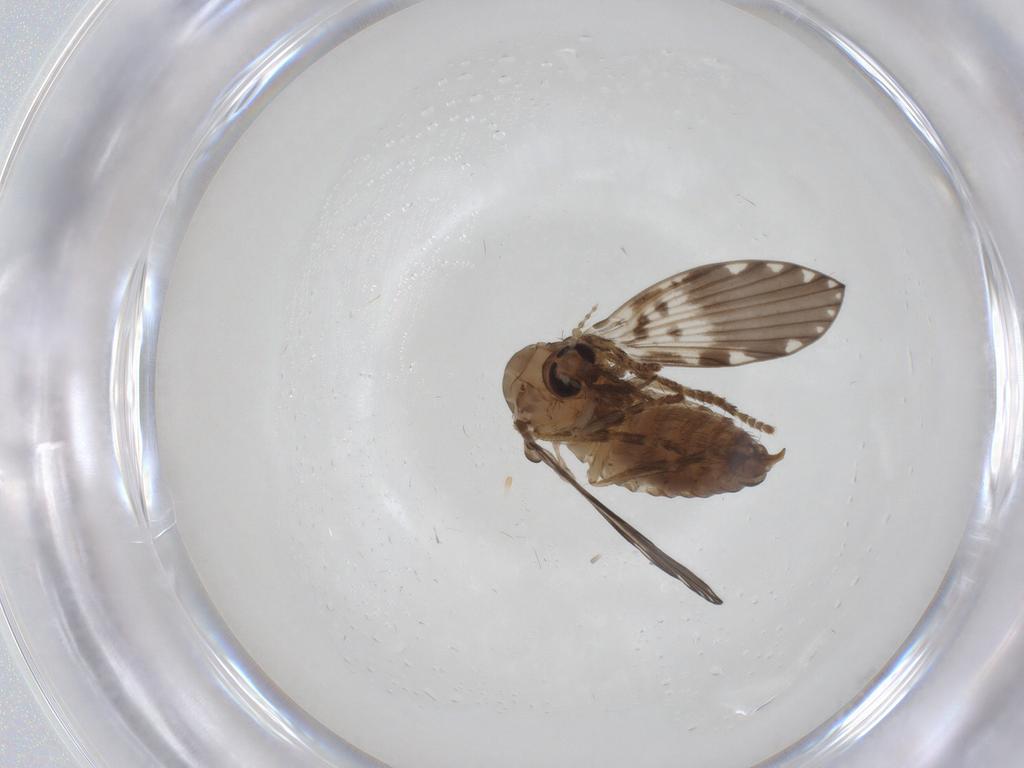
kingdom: Animalia
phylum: Arthropoda
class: Insecta
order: Diptera
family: Psychodidae
